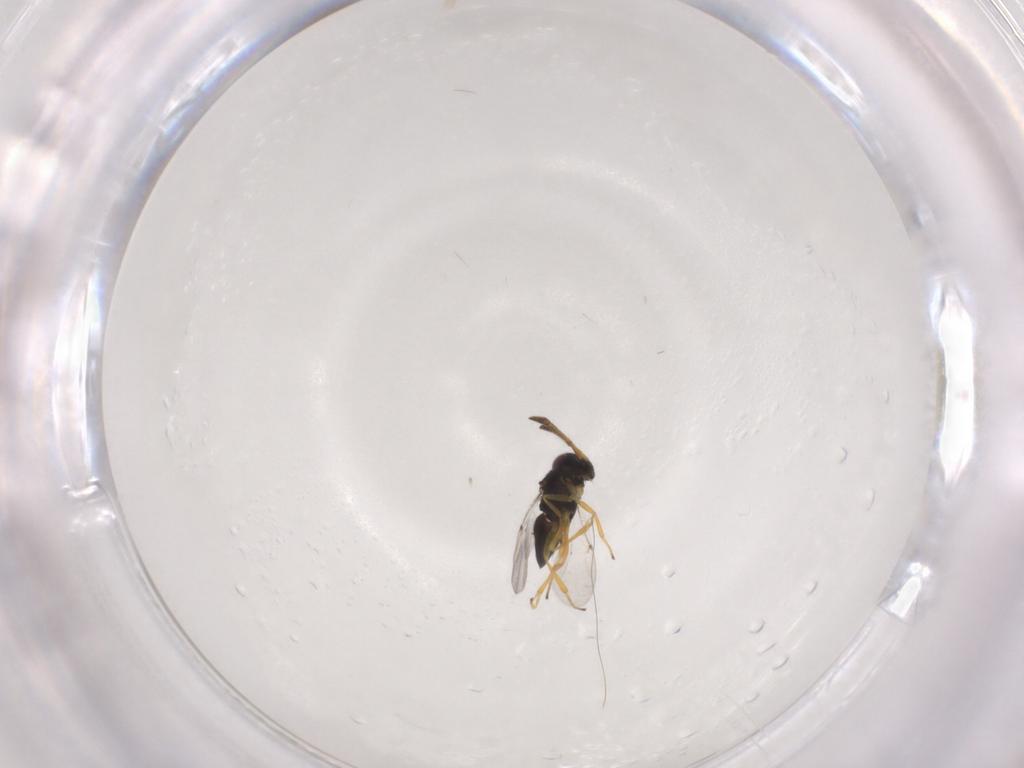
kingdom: Animalia
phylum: Arthropoda
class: Insecta
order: Hymenoptera
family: Encyrtidae
